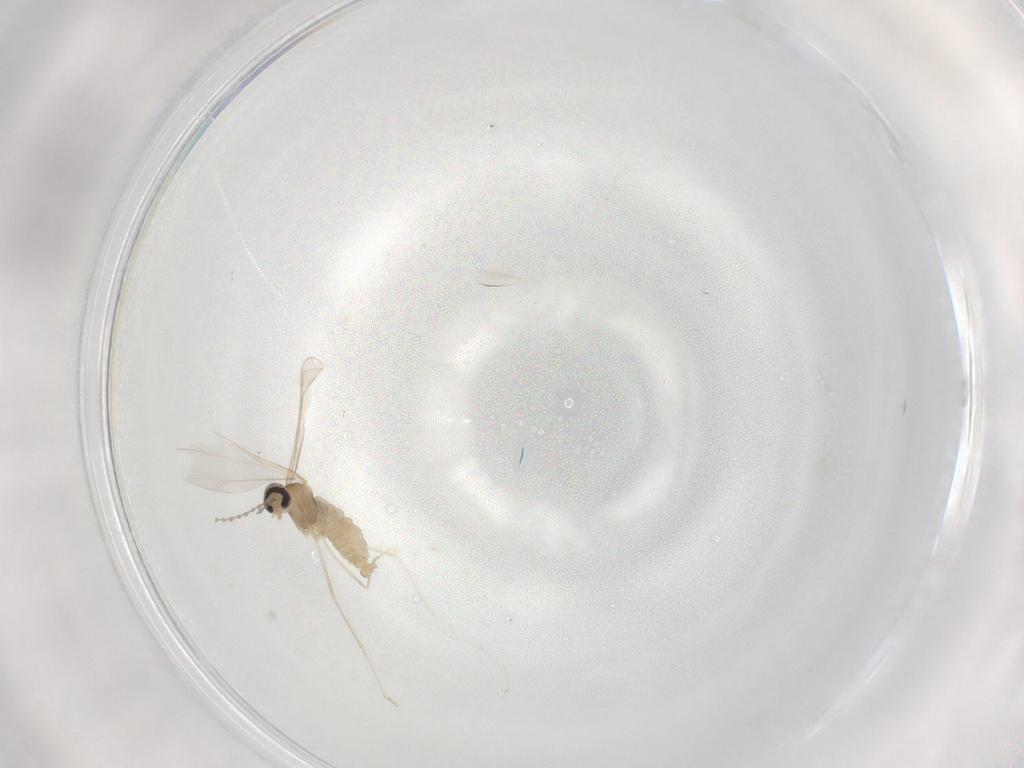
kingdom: Animalia
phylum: Arthropoda
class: Insecta
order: Diptera
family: Cecidomyiidae
